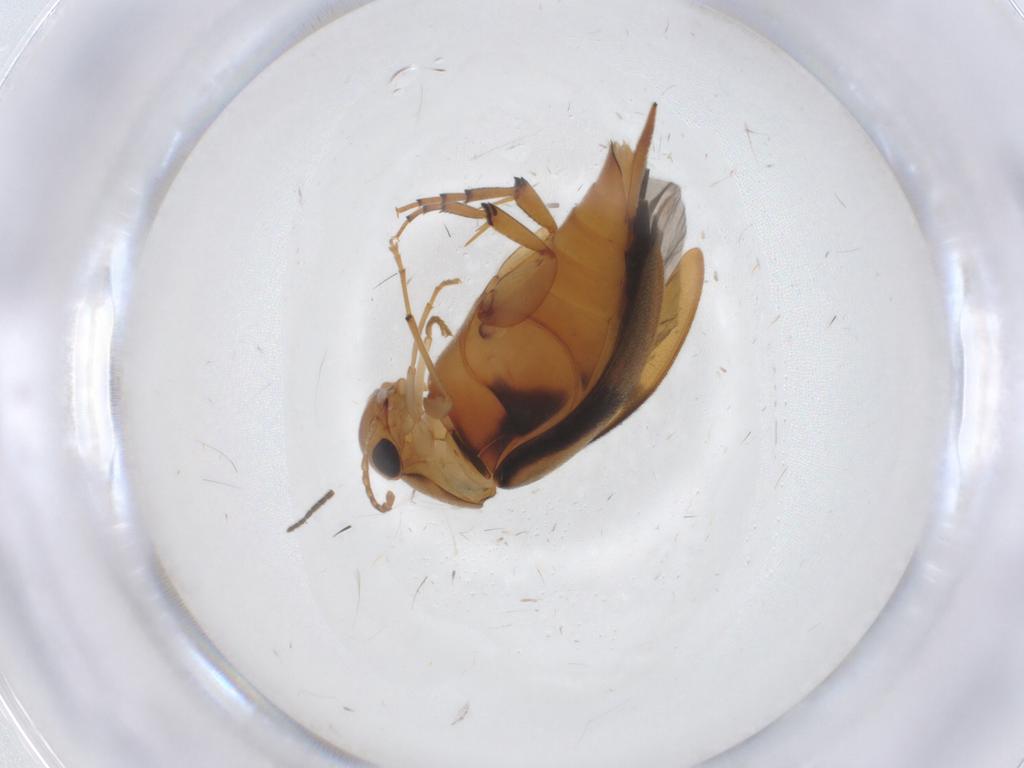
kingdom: Animalia
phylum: Arthropoda
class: Insecta
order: Coleoptera
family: Mordellidae
